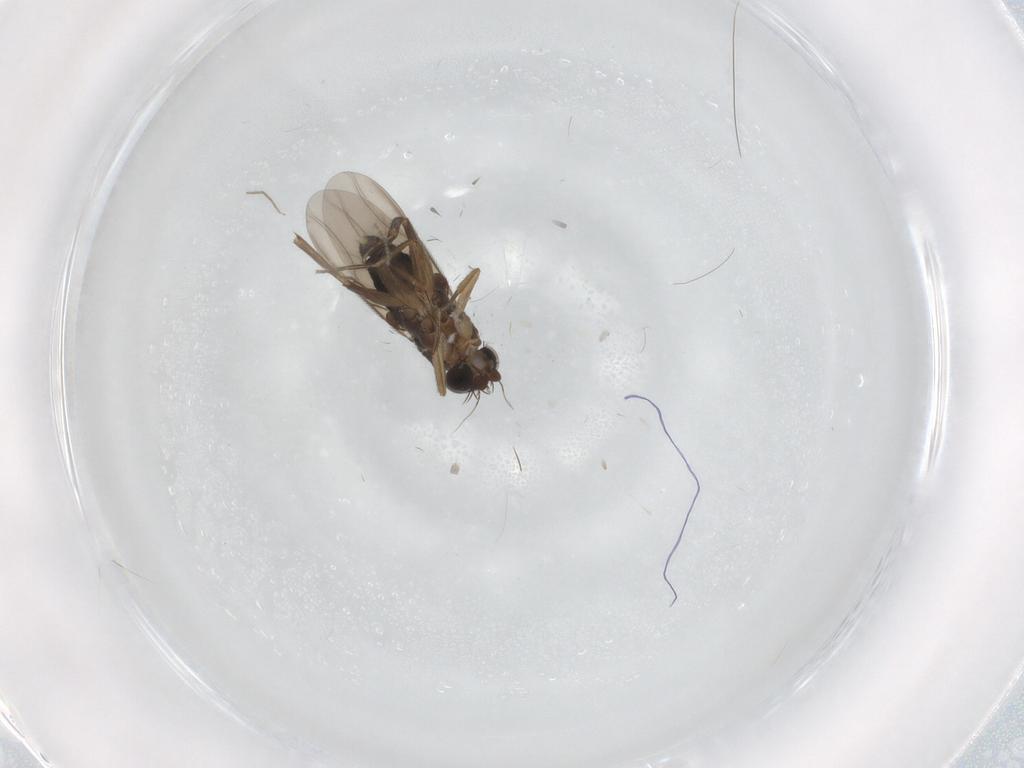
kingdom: Animalia
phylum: Arthropoda
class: Insecta
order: Diptera
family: Phoridae
